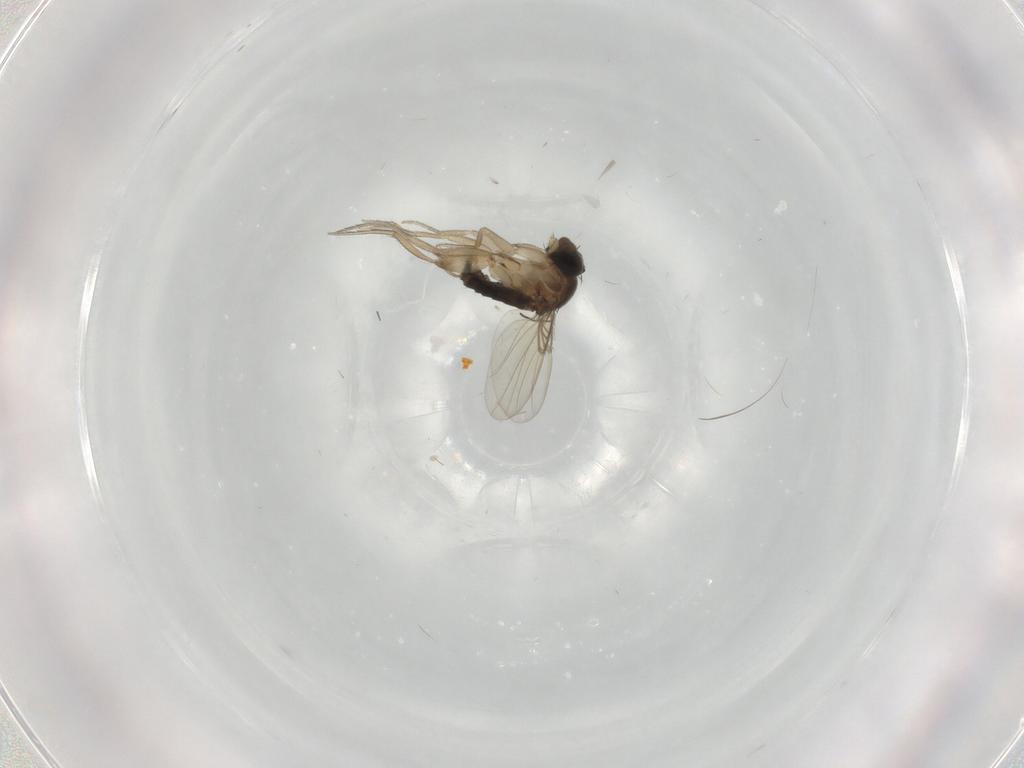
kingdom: Animalia
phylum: Arthropoda
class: Insecta
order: Diptera
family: Phoridae
